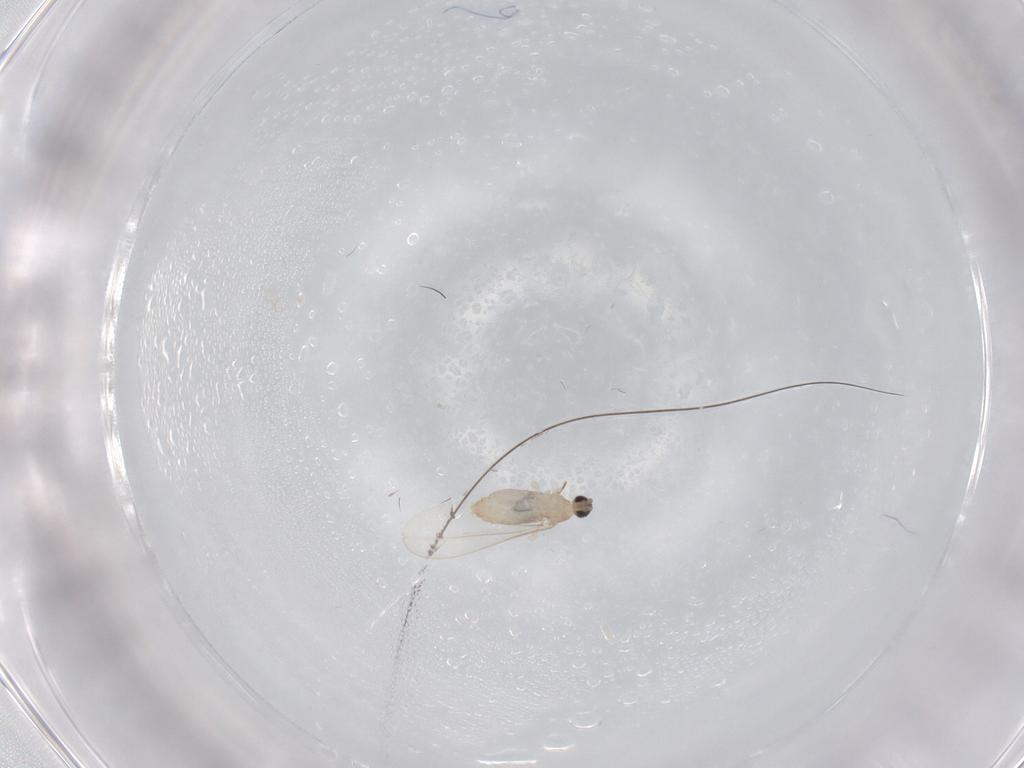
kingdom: Animalia
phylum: Arthropoda
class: Insecta
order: Diptera
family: Cecidomyiidae
